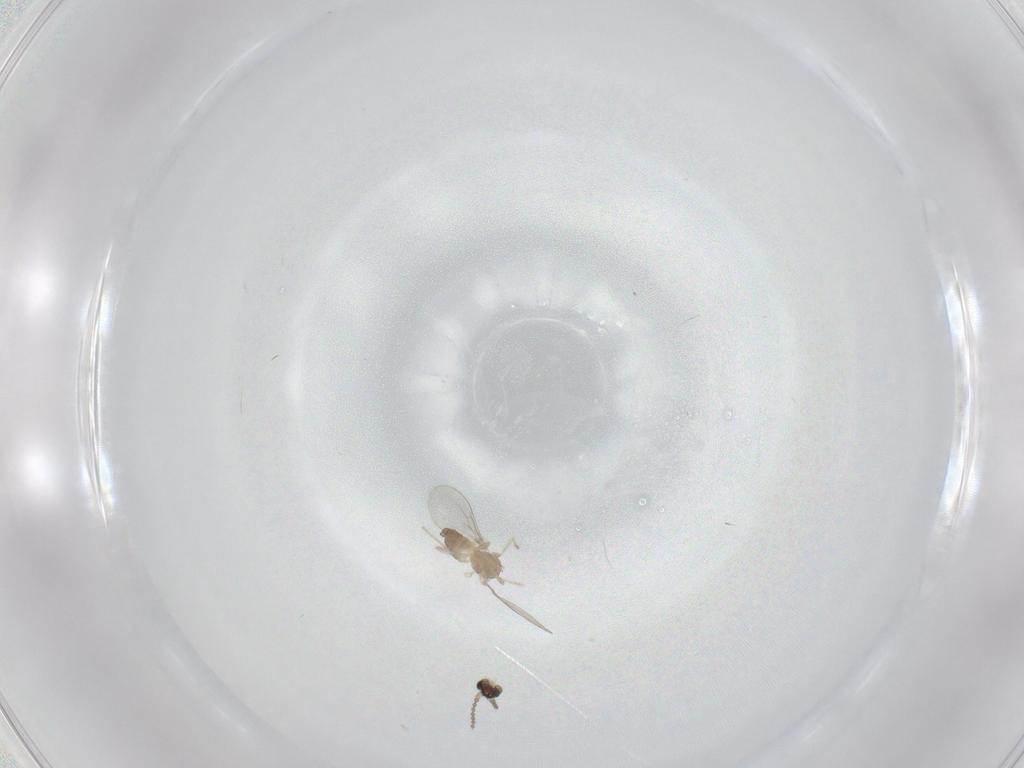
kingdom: Animalia
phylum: Arthropoda
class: Insecta
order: Diptera
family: Cecidomyiidae
